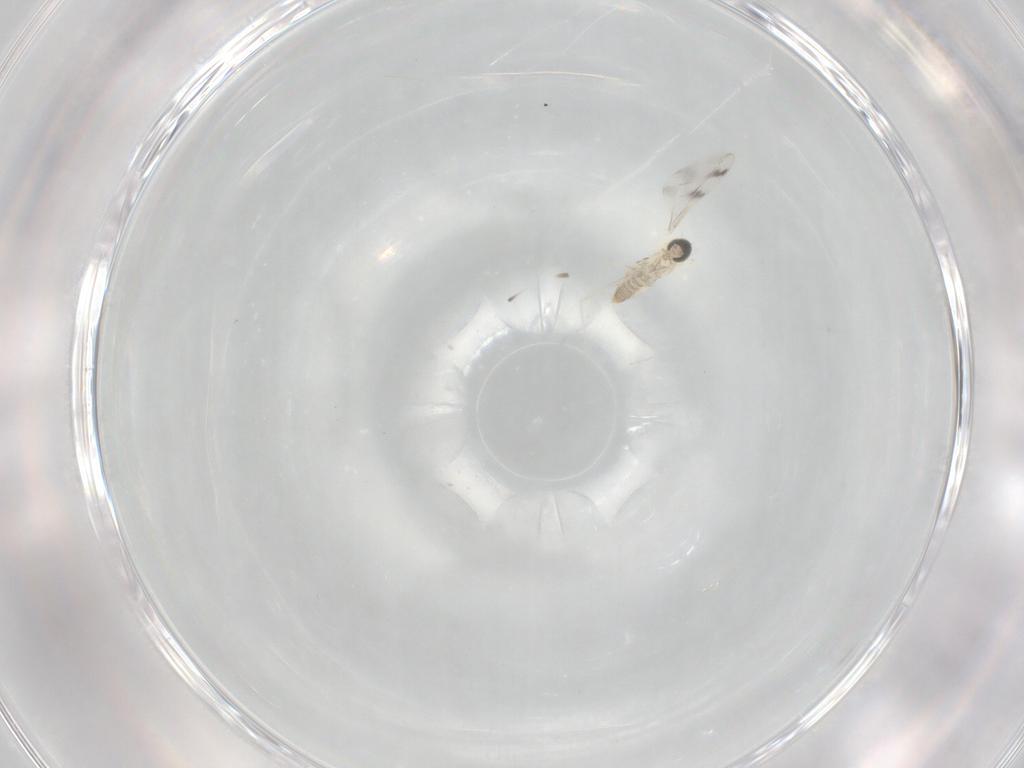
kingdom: Animalia
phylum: Arthropoda
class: Insecta
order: Diptera
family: Cecidomyiidae
